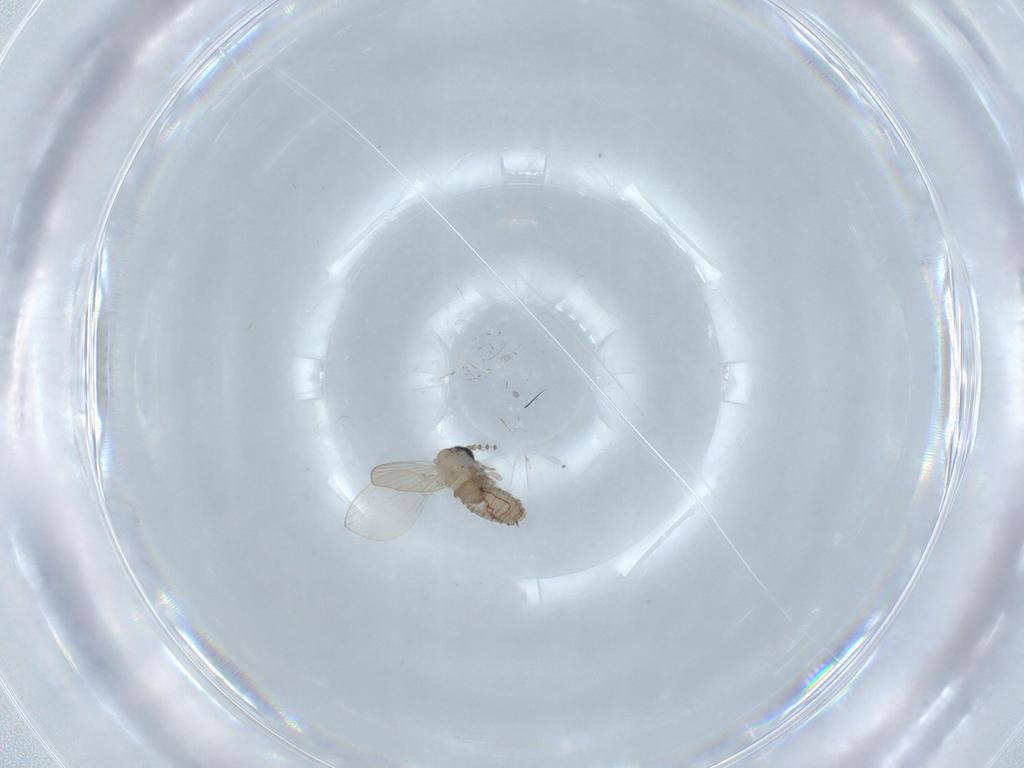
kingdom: Animalia
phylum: Arthropoda
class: Insecta
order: Diptera
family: Psychodidae
